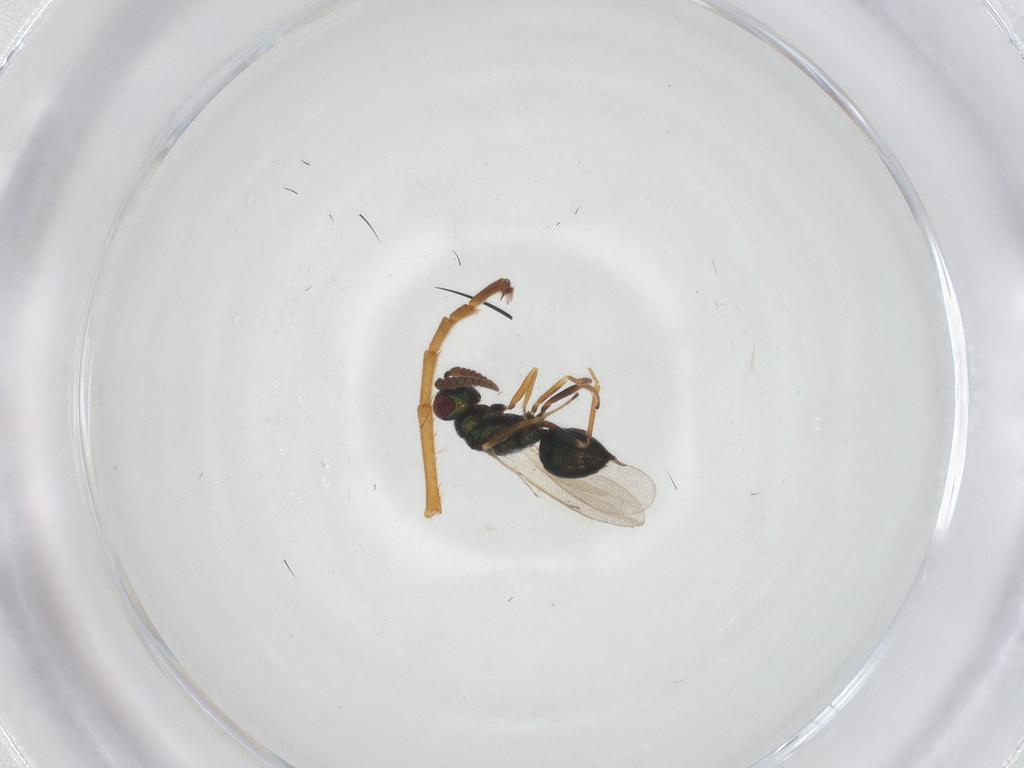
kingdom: Animalia
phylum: Arthropoda
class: Insecta
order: Hymenoptera
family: Ichneumonidae
